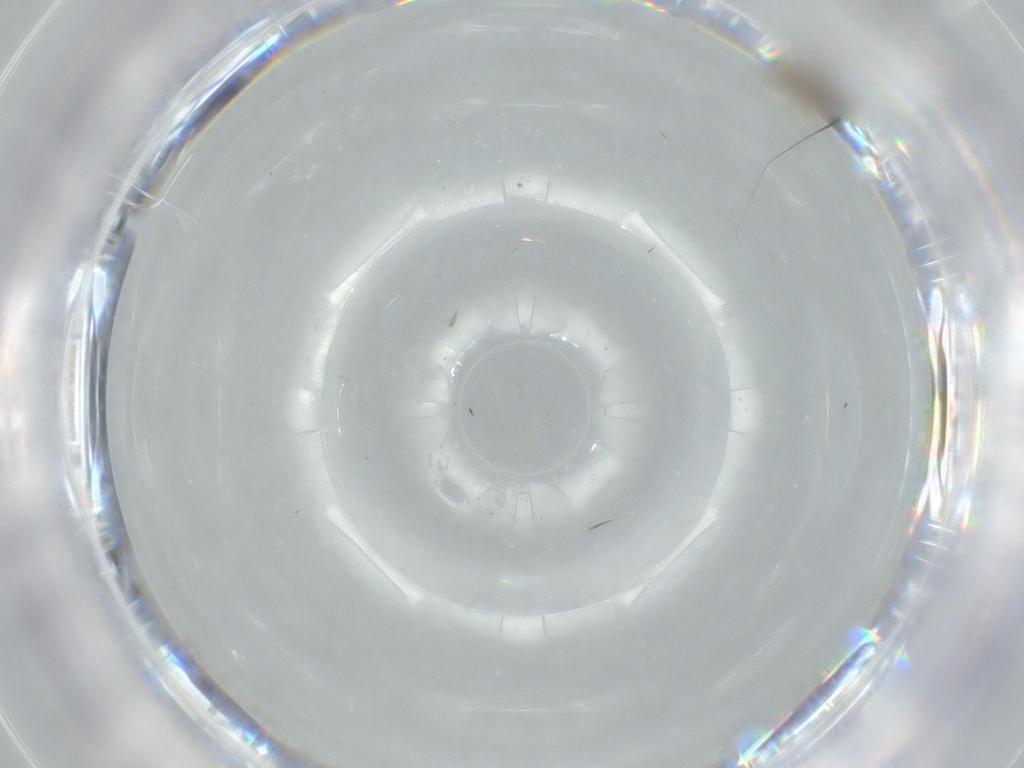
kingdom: Animalia
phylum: Arthropoda
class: Insecta
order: Diptera
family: Cecidomyiidae
